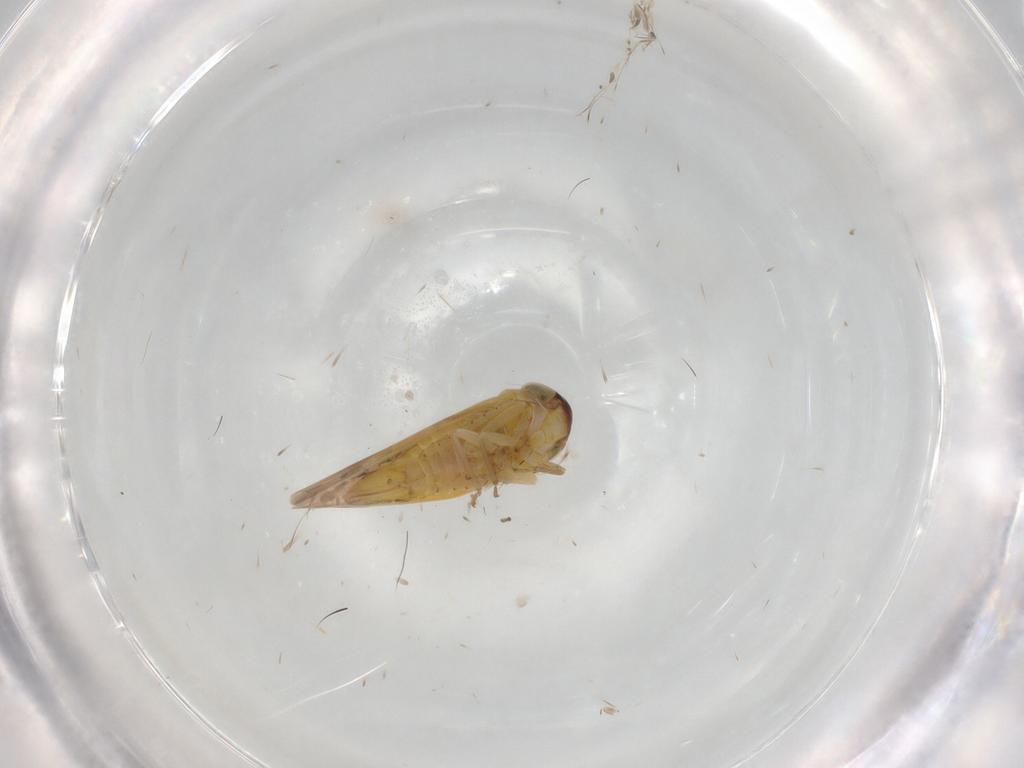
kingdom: Animalia
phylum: Arthropoda
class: Insecta
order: Hemiptera
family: Cicadellidae
